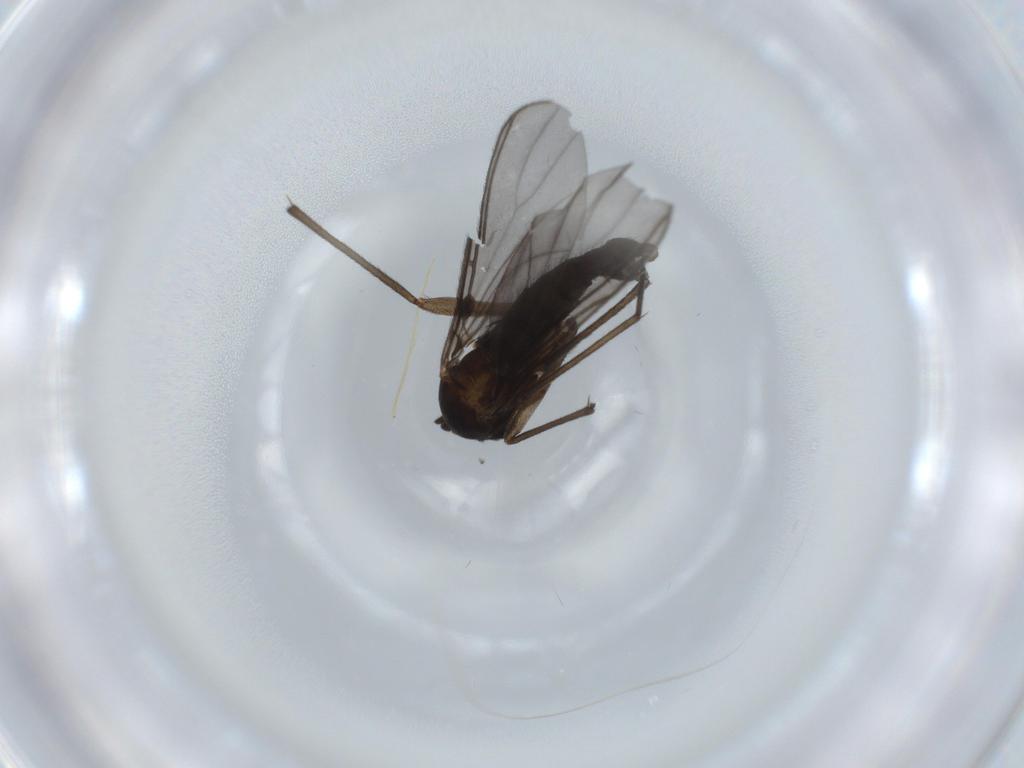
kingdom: Animalia
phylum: Arthropoda
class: Insecta
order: Diptera
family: Sciaridae
